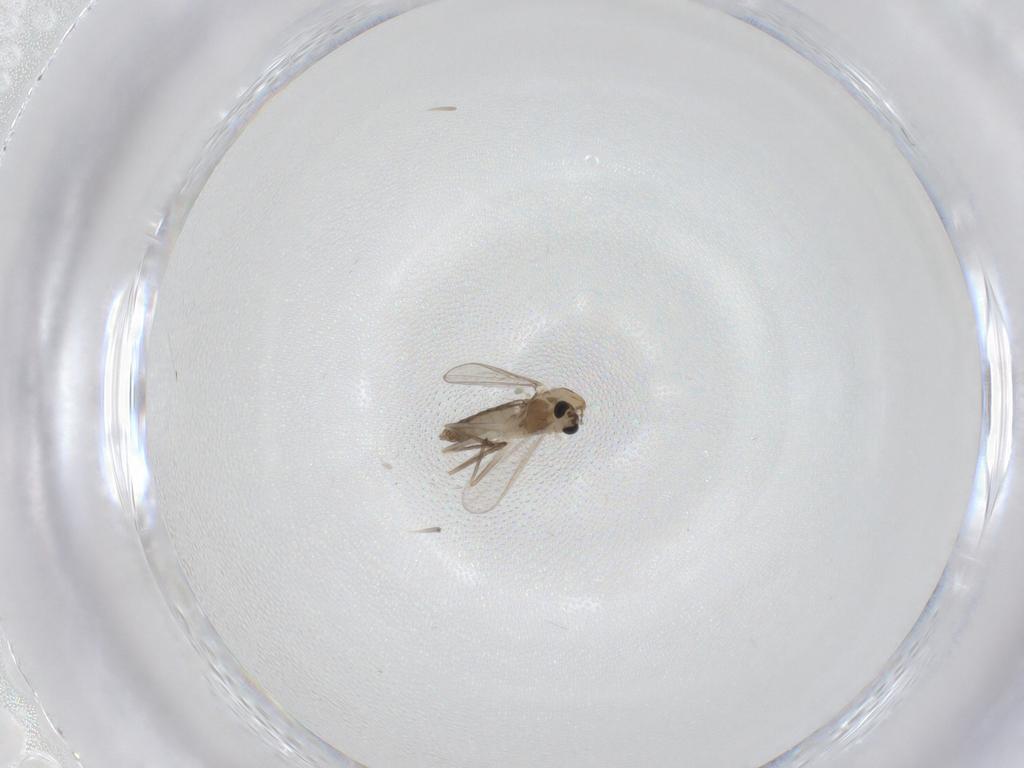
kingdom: Animalia
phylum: Arthropoda
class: Insecta
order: Diptera
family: Chironomidae
